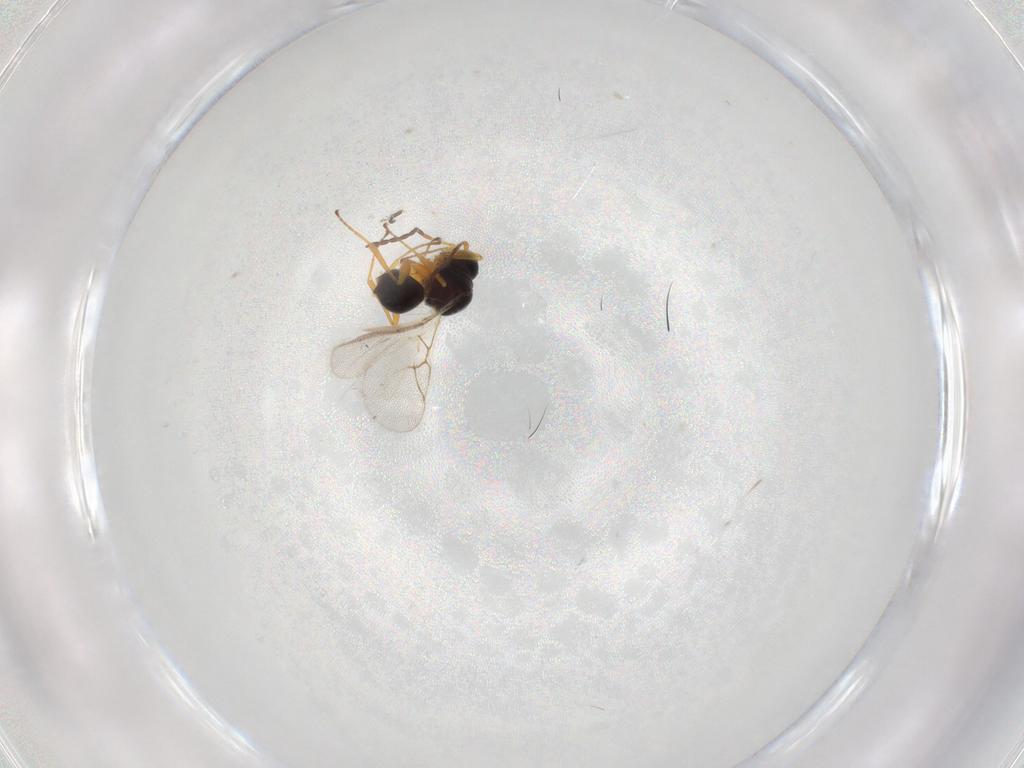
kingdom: Animalia
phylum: Arthropoda
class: Insecta
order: Hymenoptera
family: Figitidae
